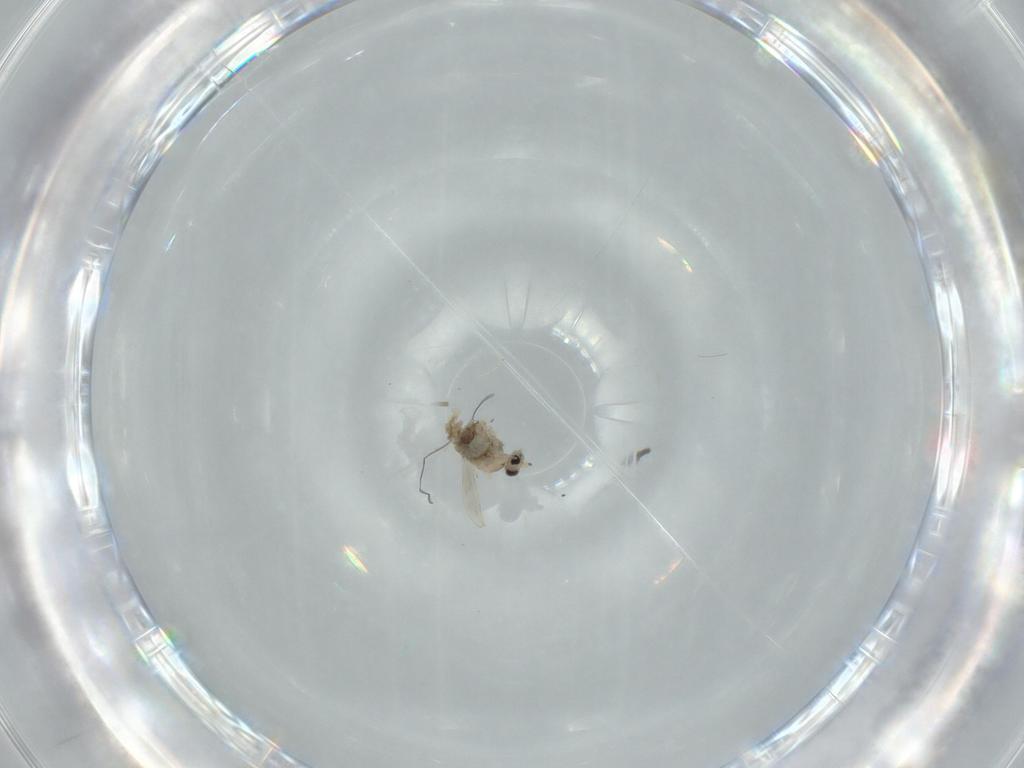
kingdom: Animalia
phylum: Arthropoda
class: Insecta
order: Diptera
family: Cecidomyiidae
